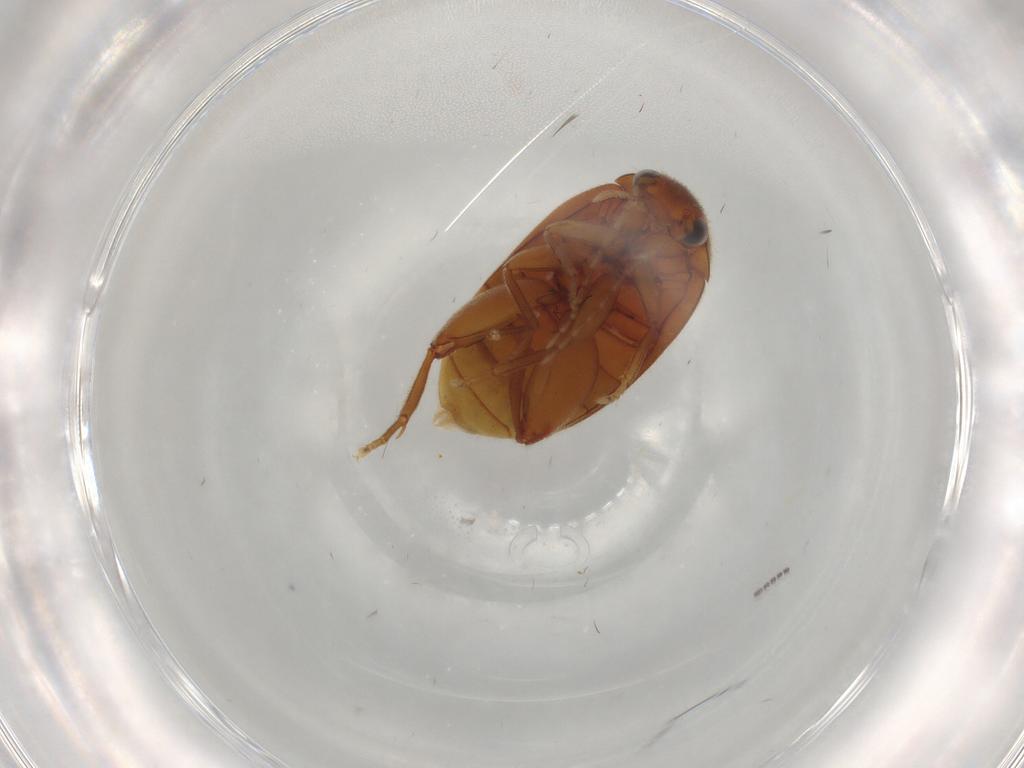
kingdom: Animalia
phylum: Arthropoda
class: Insecta
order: Coleoptera
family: Scirtidae
